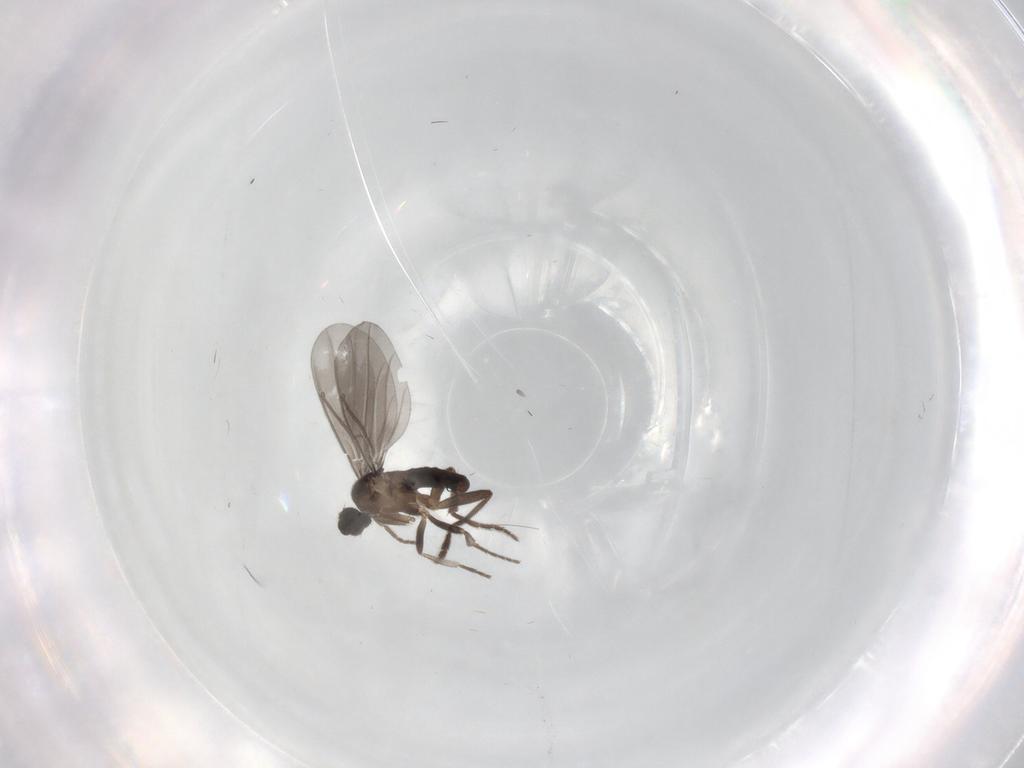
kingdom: Animalia
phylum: Arthropoda
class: Insecta
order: Diptera
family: Phoridae
